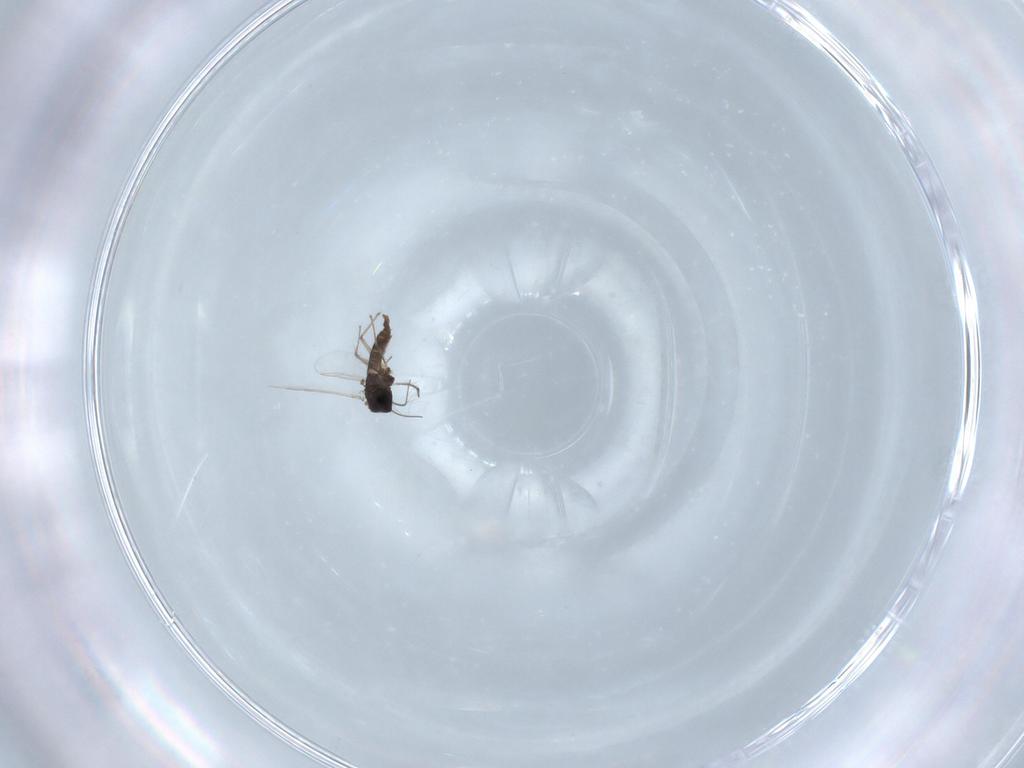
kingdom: Animalia
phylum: Arthropoda
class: Insecta
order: Diptera
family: Chironomidae
